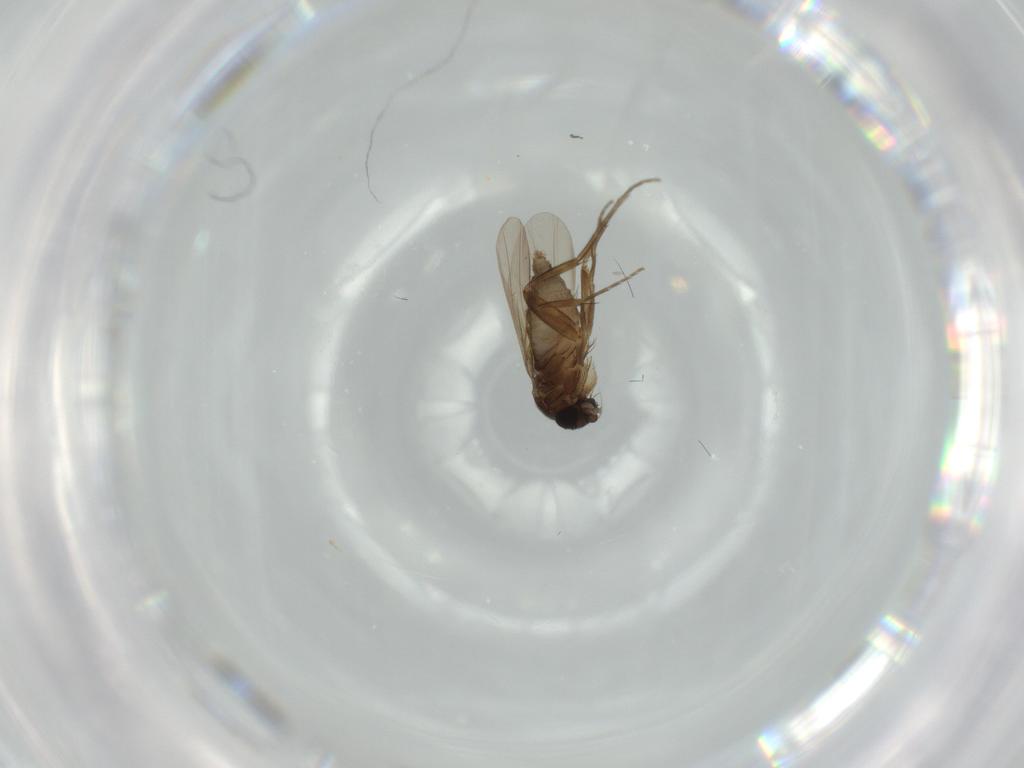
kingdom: Animalia
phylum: Arthropoda
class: Insecta
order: Diptera
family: Phoridae
